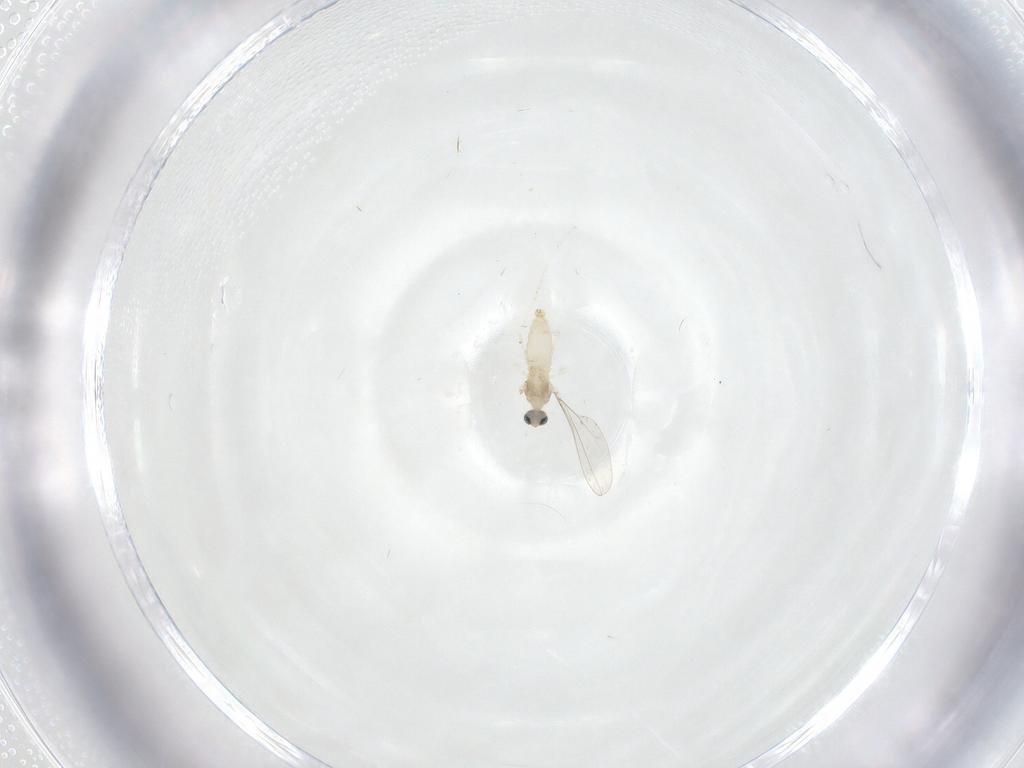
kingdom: Animalia
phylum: Arthropoda
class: Insecta
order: Diptera
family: Cecidomyiidae
